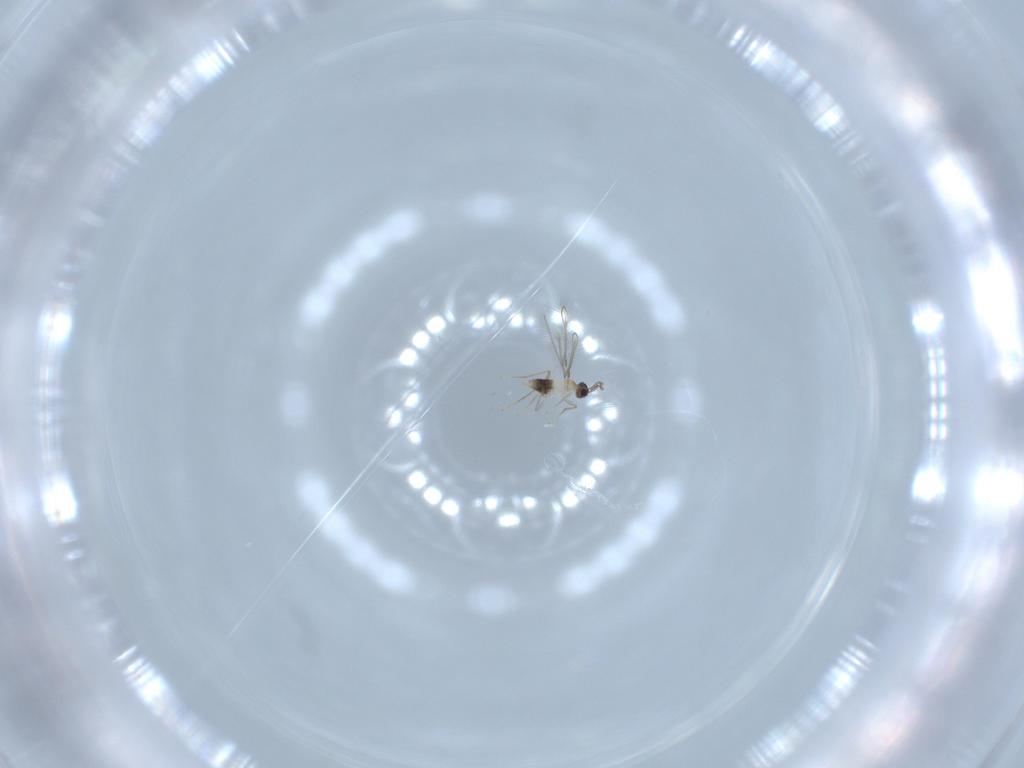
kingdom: Animalia
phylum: Arthropoda
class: Insecta
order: Hymenoptera
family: Mymaridae
